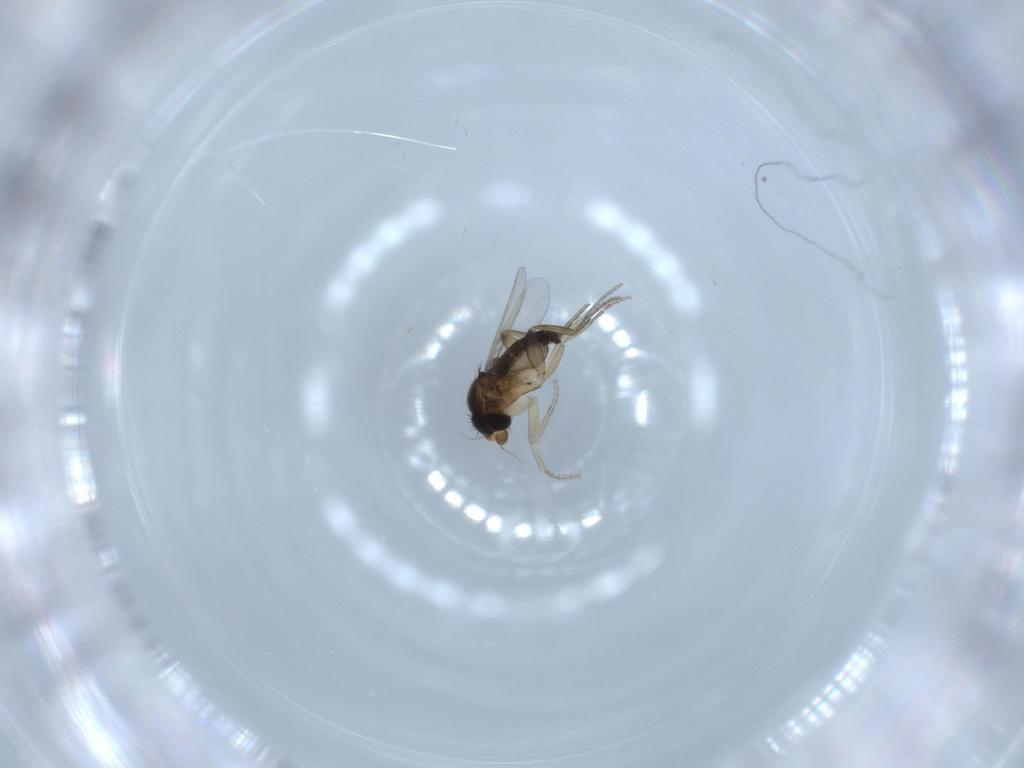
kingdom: Animalia
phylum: Arthropoda
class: Insecta
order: Diptera
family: Phoridae
